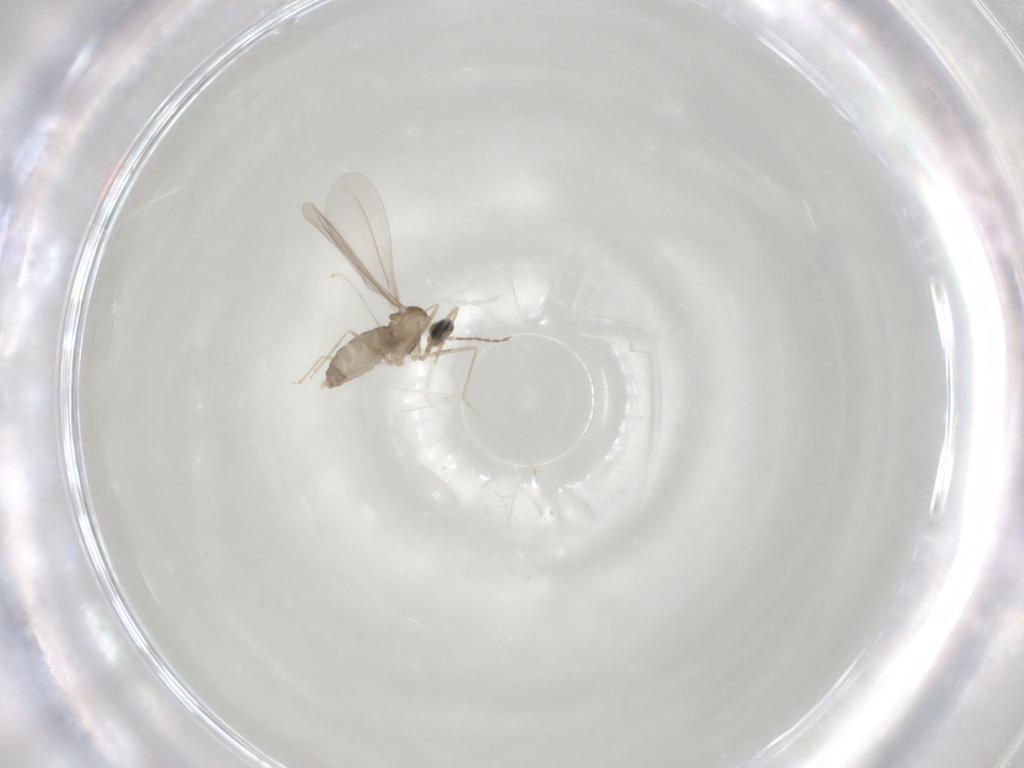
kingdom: Animalia
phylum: Arthropoda
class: Insecta
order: Diptera
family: Cecidomyiidae
